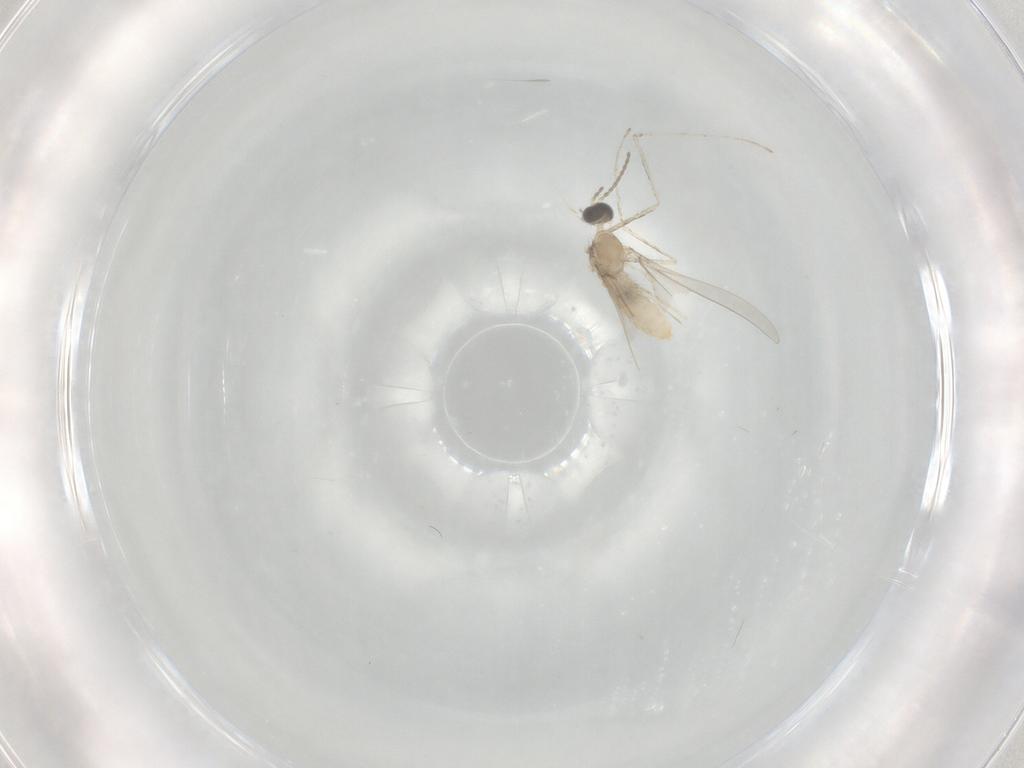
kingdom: Animalia
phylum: Arthropoda
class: Insecta
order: Diptera
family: Cecidomyiidae
